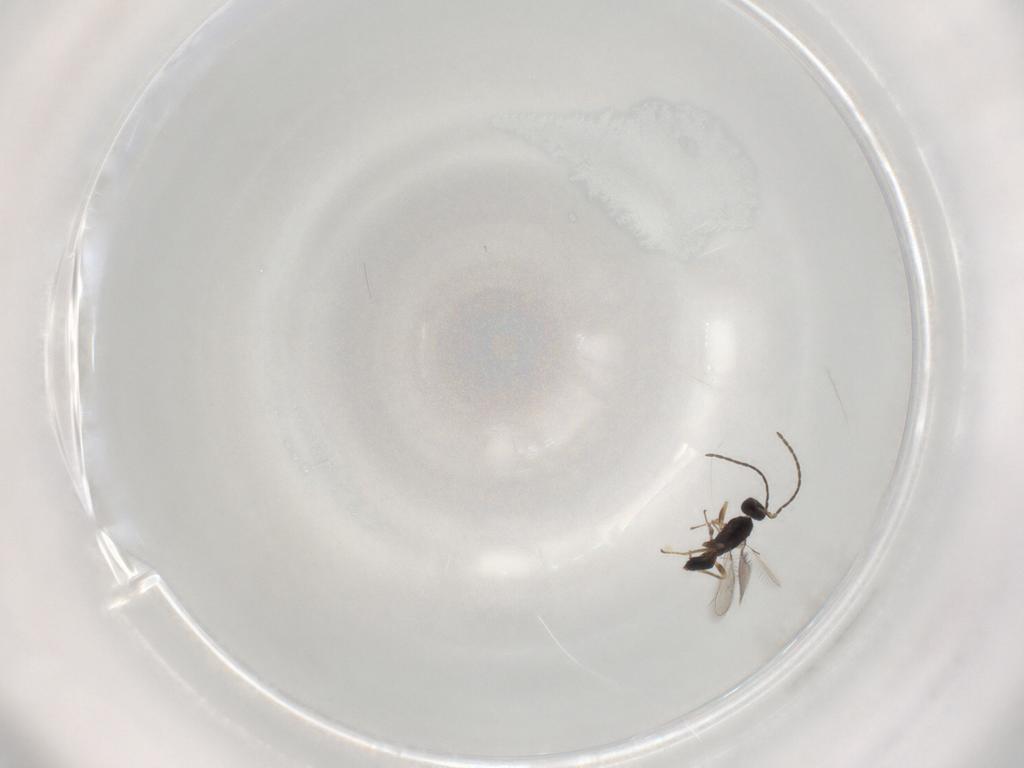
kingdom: Animalia
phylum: Arthropoda
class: Insecta
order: Hymenoptera
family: Mymaridae
